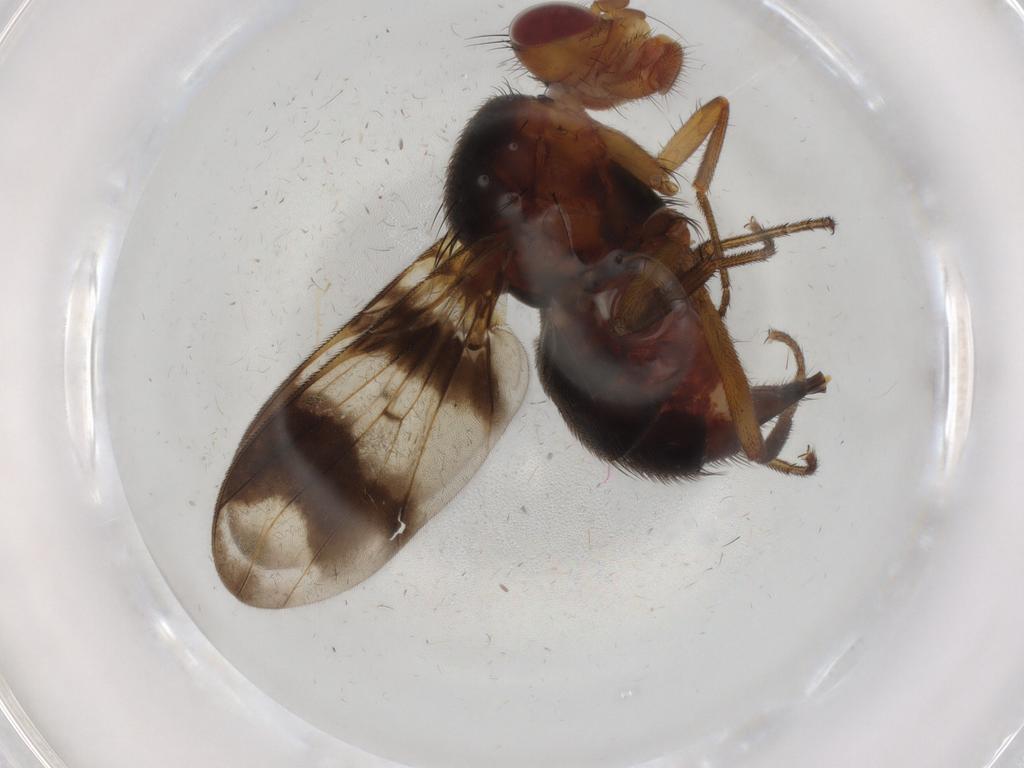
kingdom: Animalia
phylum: Arthropoda
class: Insecta
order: Diptera
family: Richardiidae
